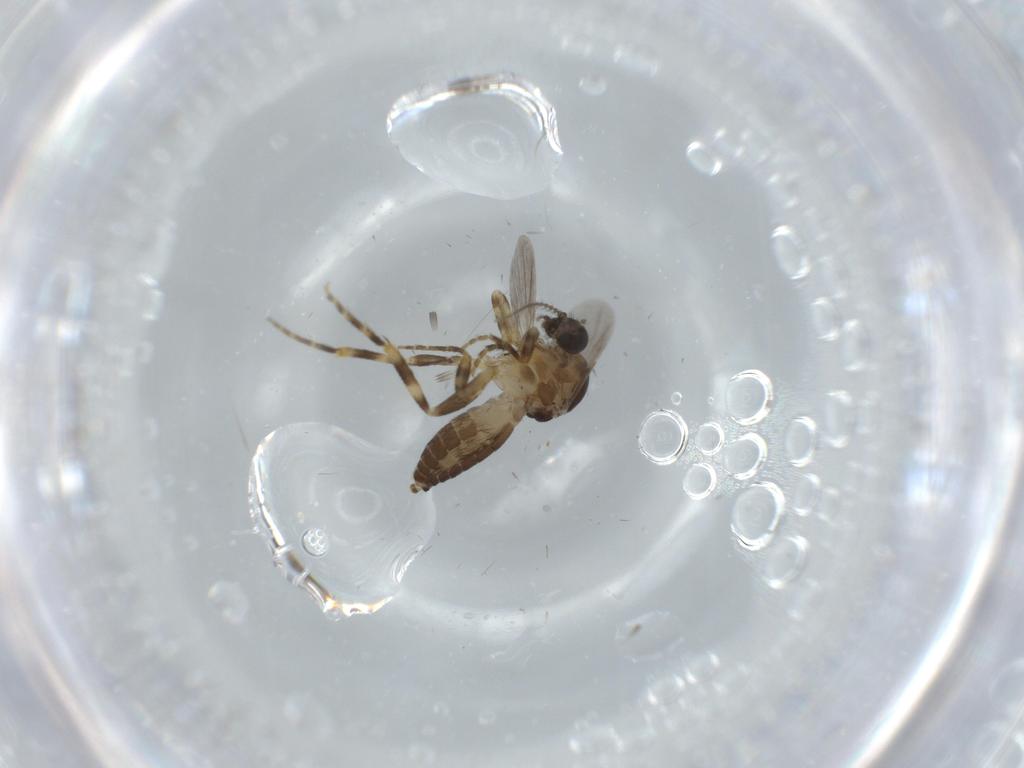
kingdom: Animalia
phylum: Arthropoda
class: Insecta
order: Diptera
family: Ceratopogonidae
